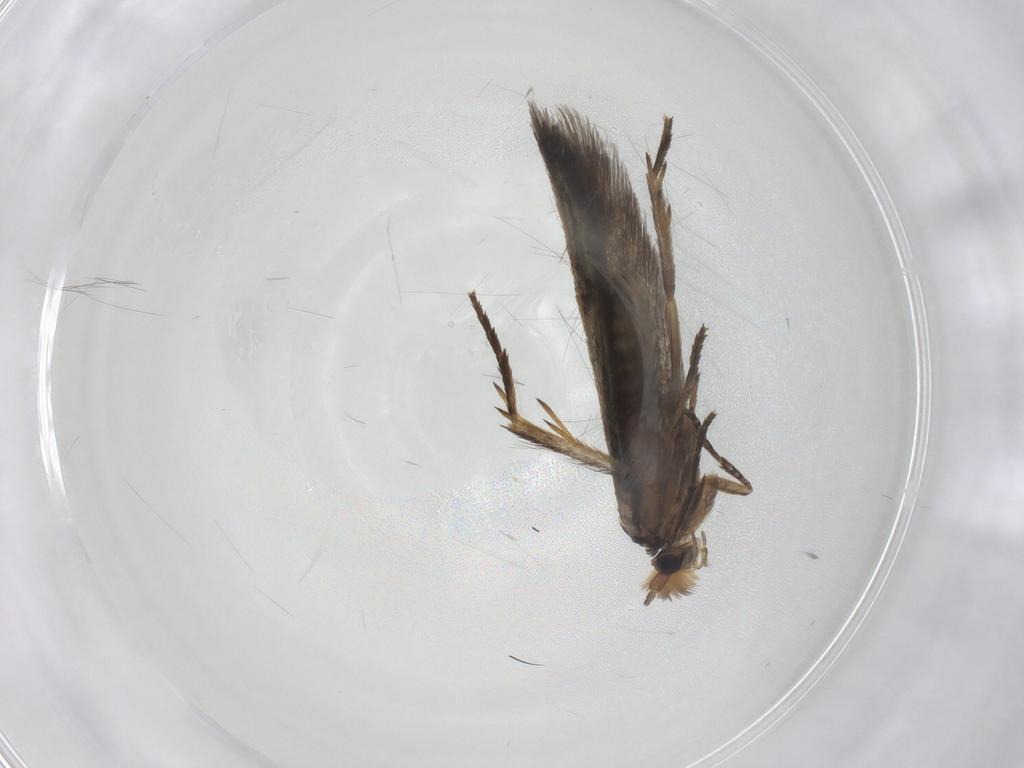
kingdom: Animalia
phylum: Arthropoda
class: Insecta
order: Lepidoptera
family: Nepticulidae
